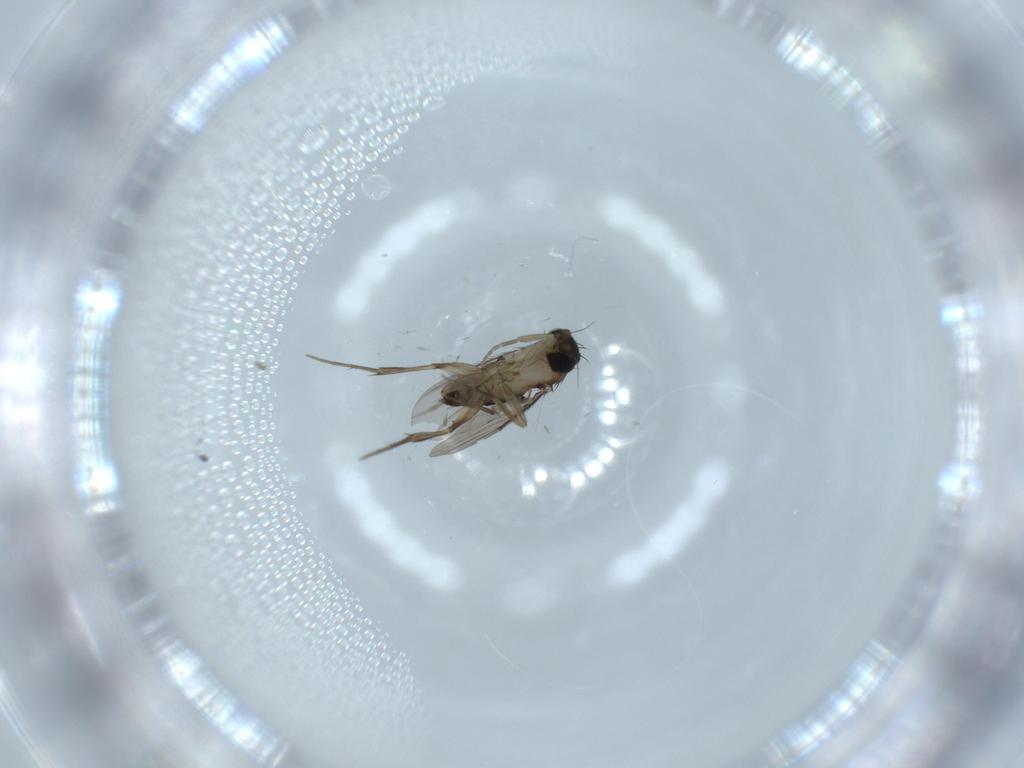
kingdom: Animalia
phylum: Arthropoda
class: Insecta
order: Diptera
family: Phoridae
